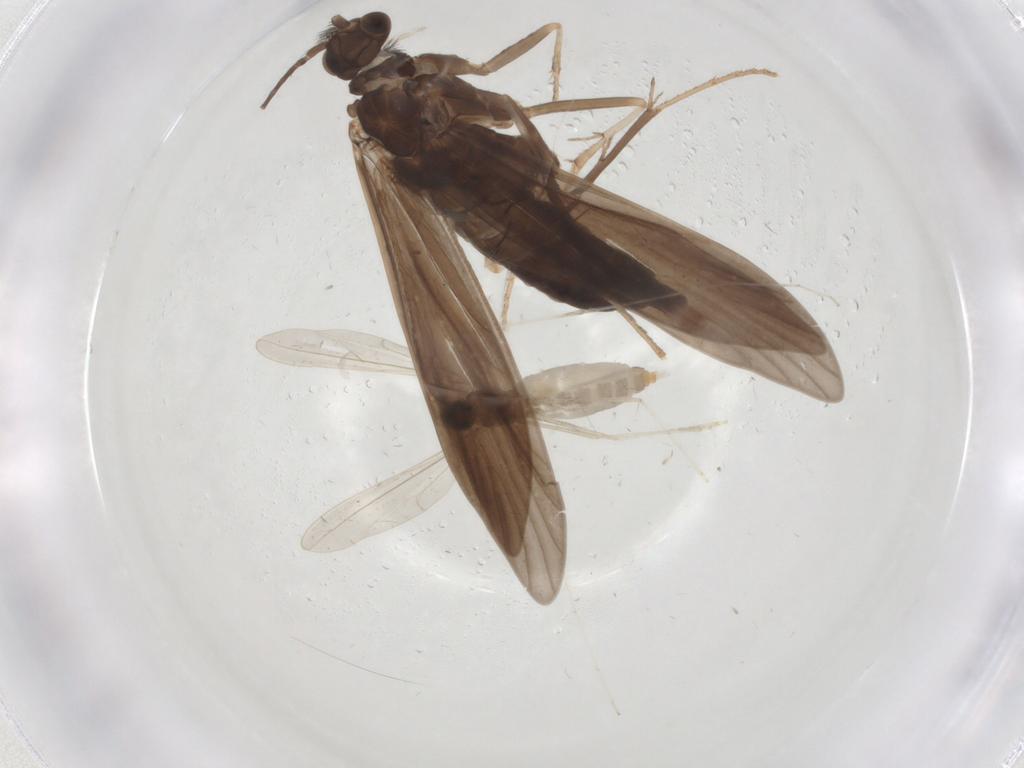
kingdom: Animalia
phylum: Arthropoda
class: Insecta
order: Trichoptera
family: Xiphocentronidae
